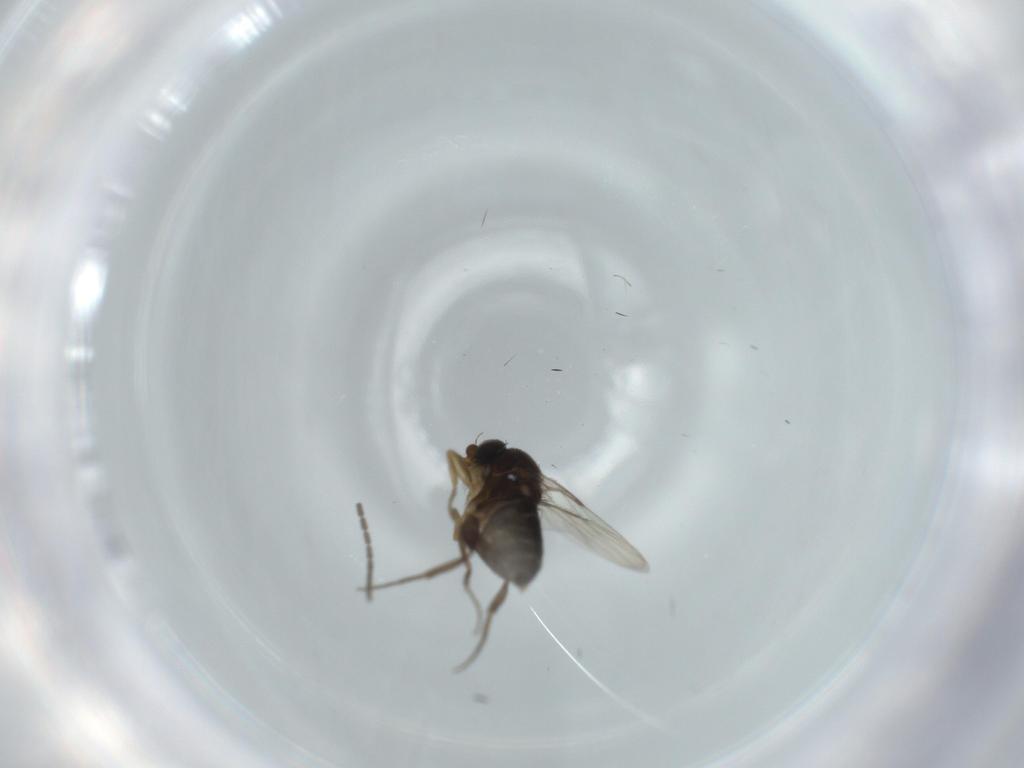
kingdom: Animalia
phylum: Arthropoda
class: Insecta
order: Diptera
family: Phoridae
